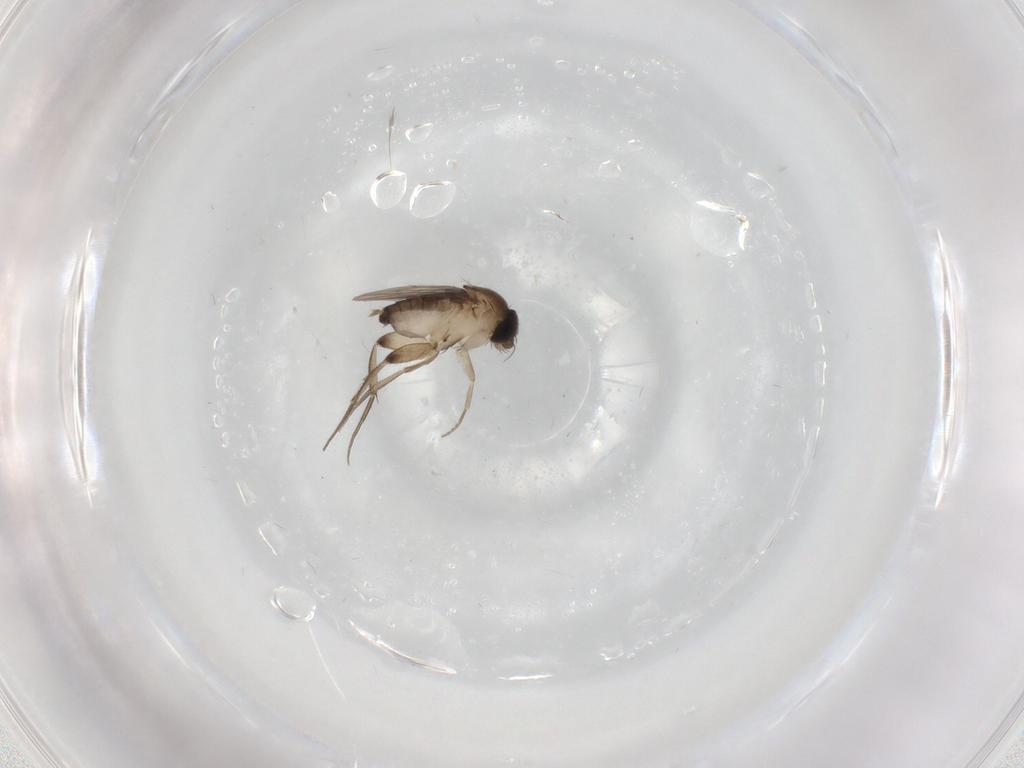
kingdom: Animalia
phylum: Arthropoda
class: Insecta
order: Diptera
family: Phoridae
